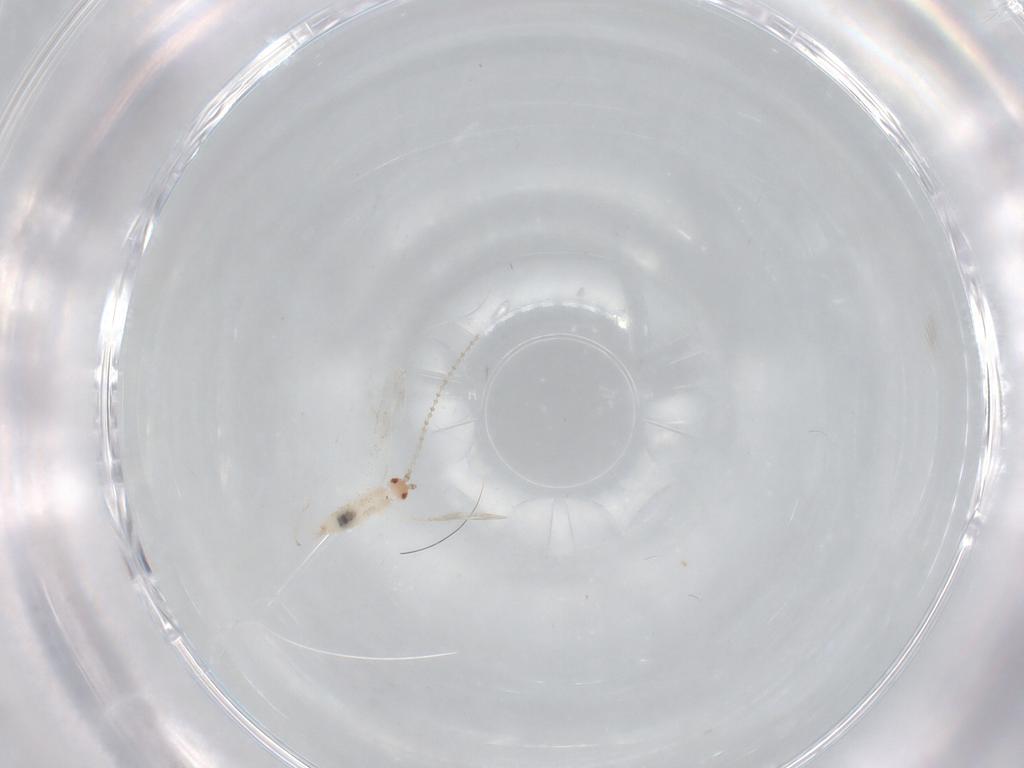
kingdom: Animalia
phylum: Arthropoda
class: Insecta
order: Diptera
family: Cecidomyiidae
